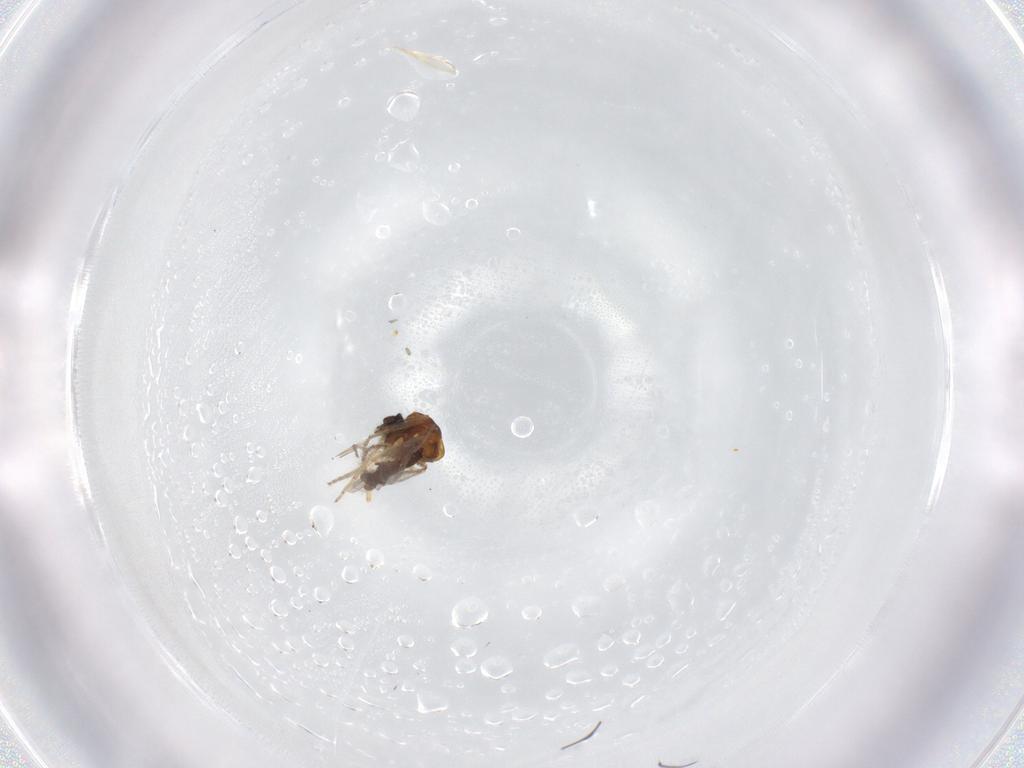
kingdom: Animalia
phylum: Arthropoda
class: Insecta
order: Diptera
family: Ceratopogonidae
